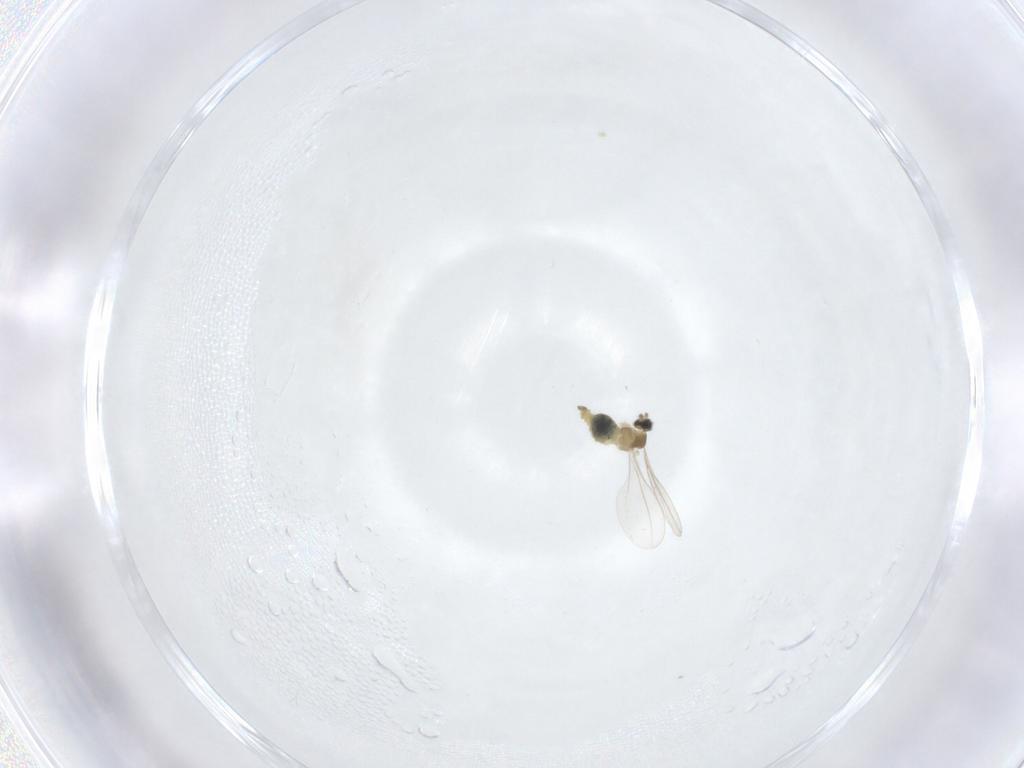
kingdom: Animalia
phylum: Arthropoda
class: Insecta
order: Diptera
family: Cecidomyiidae
